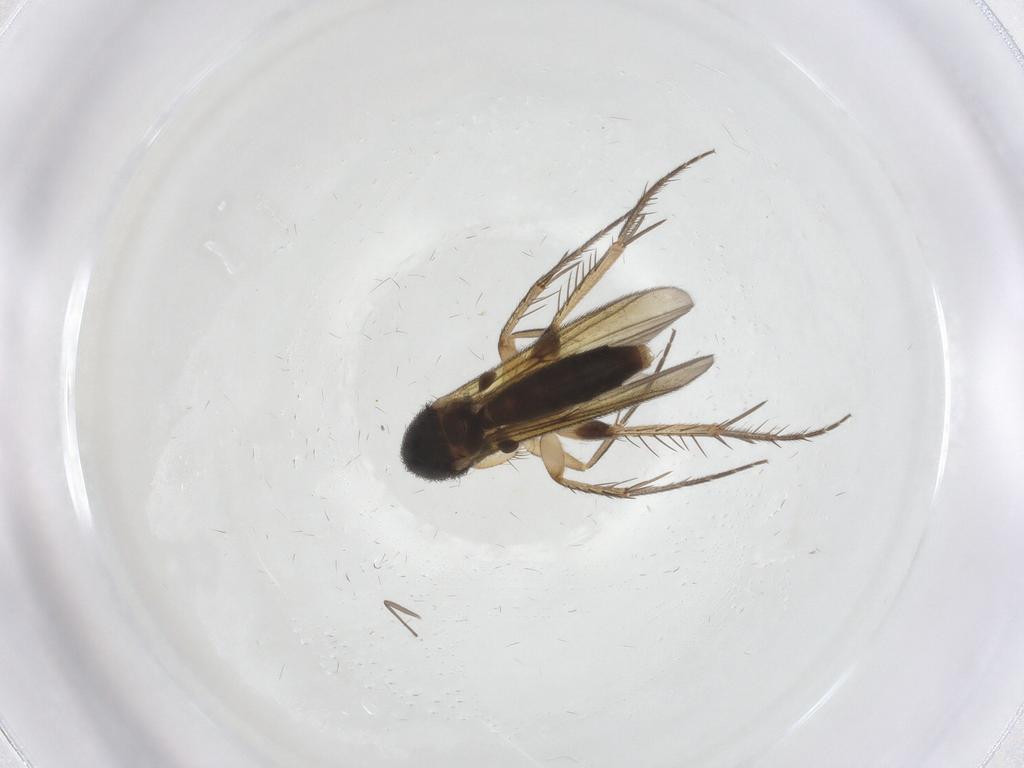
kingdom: Animalia
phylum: Arthropoda
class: Insecta
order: Diptera
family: Mycetophilidae
